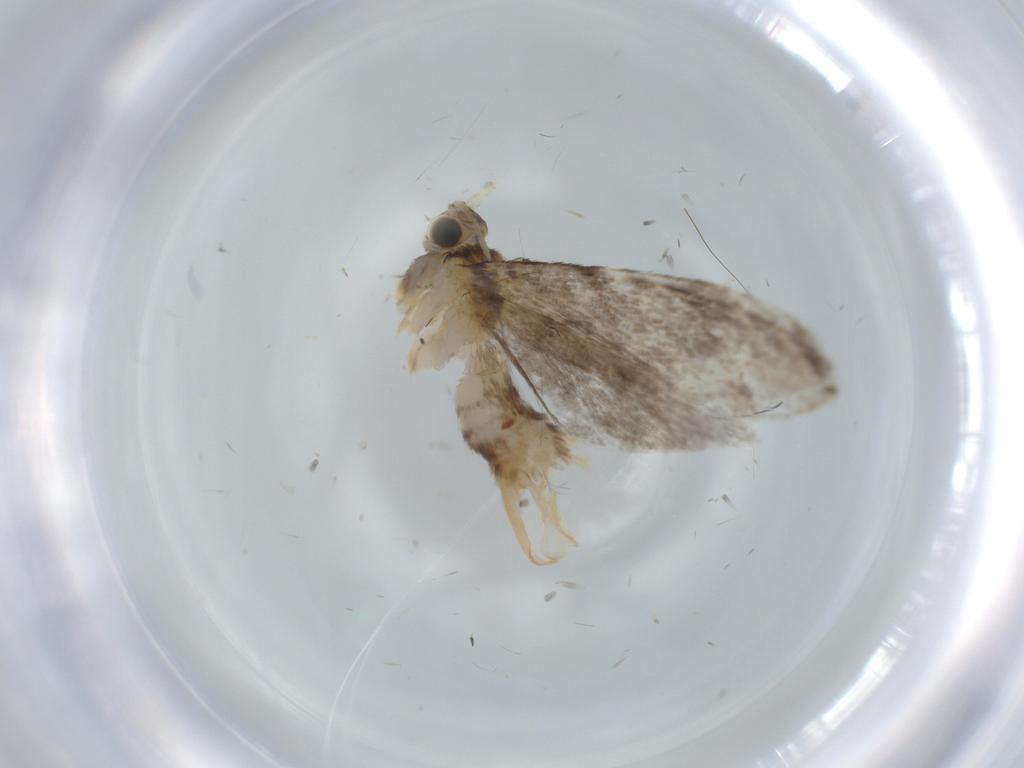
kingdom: Animalia
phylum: Arthropoda
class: Insecta
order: Lepidoptera
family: Tineidae
